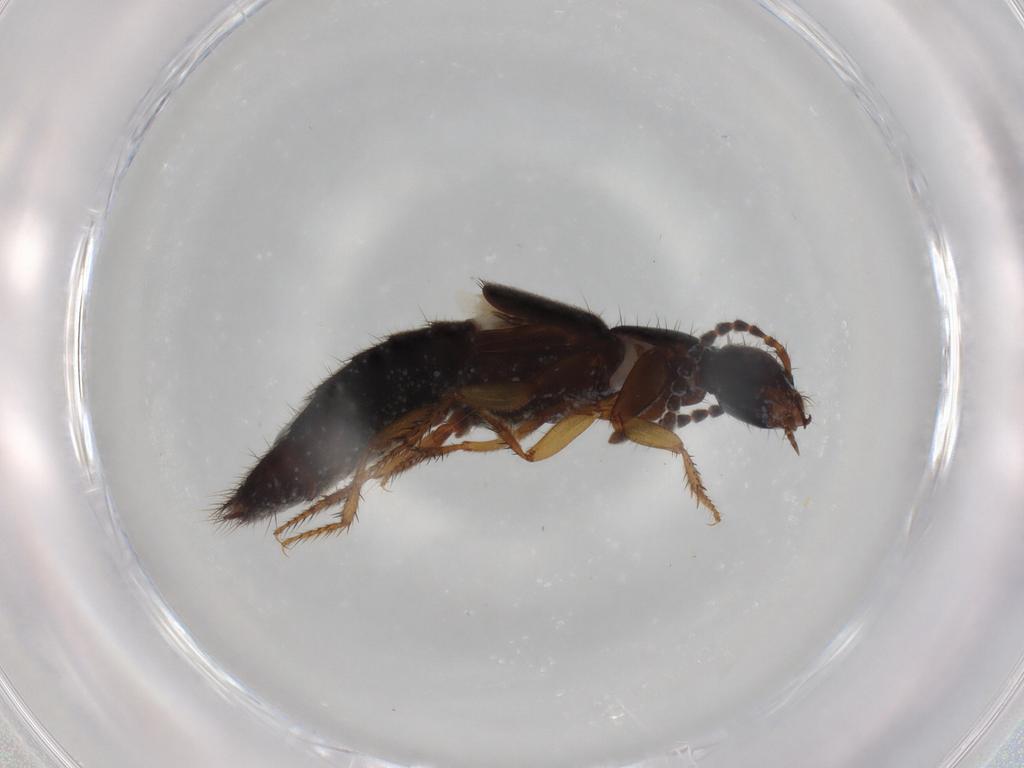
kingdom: Animalia
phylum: Arthropoda
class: Insecta
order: Coleoptera
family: Staphylinidae
